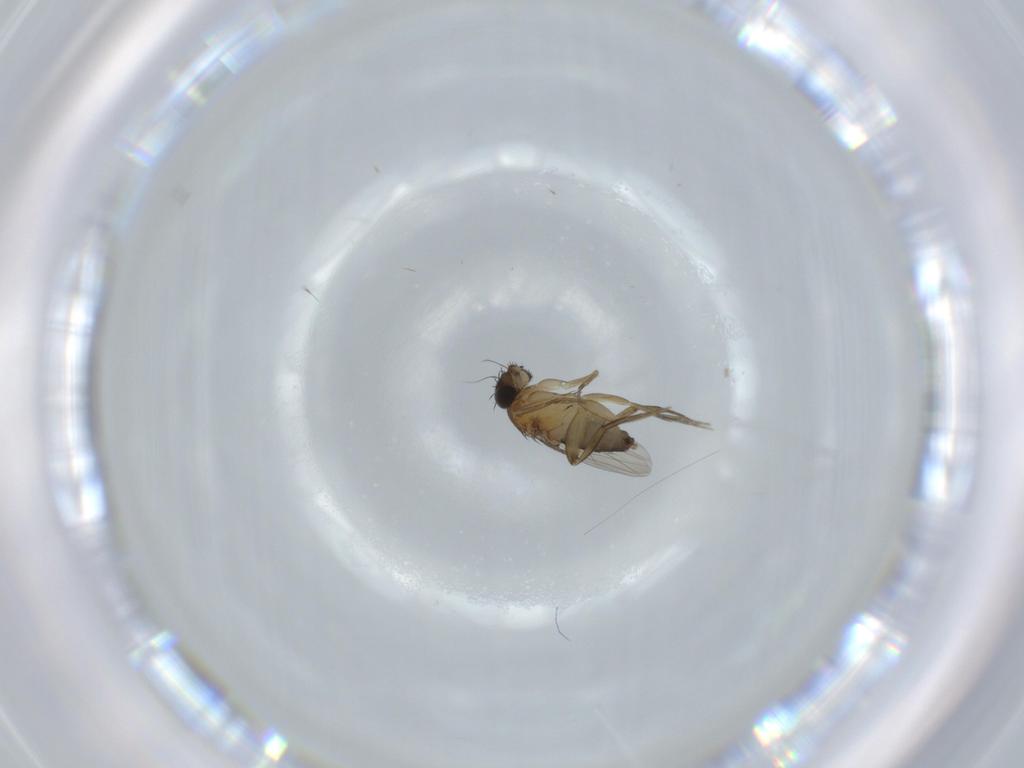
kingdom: Animalia
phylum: Arthropoda
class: Insecta
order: Diptera
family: Phoridae
